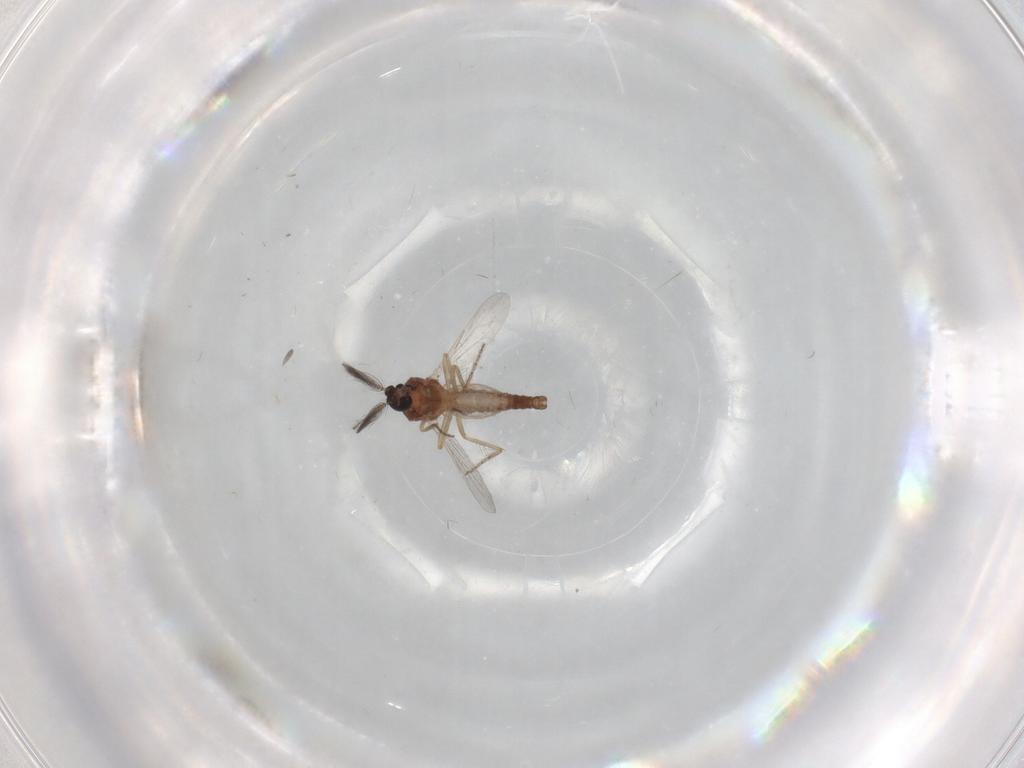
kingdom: Animalia
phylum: Arthropoda
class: Insecta
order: Diptera
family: Ceratopogonidae
